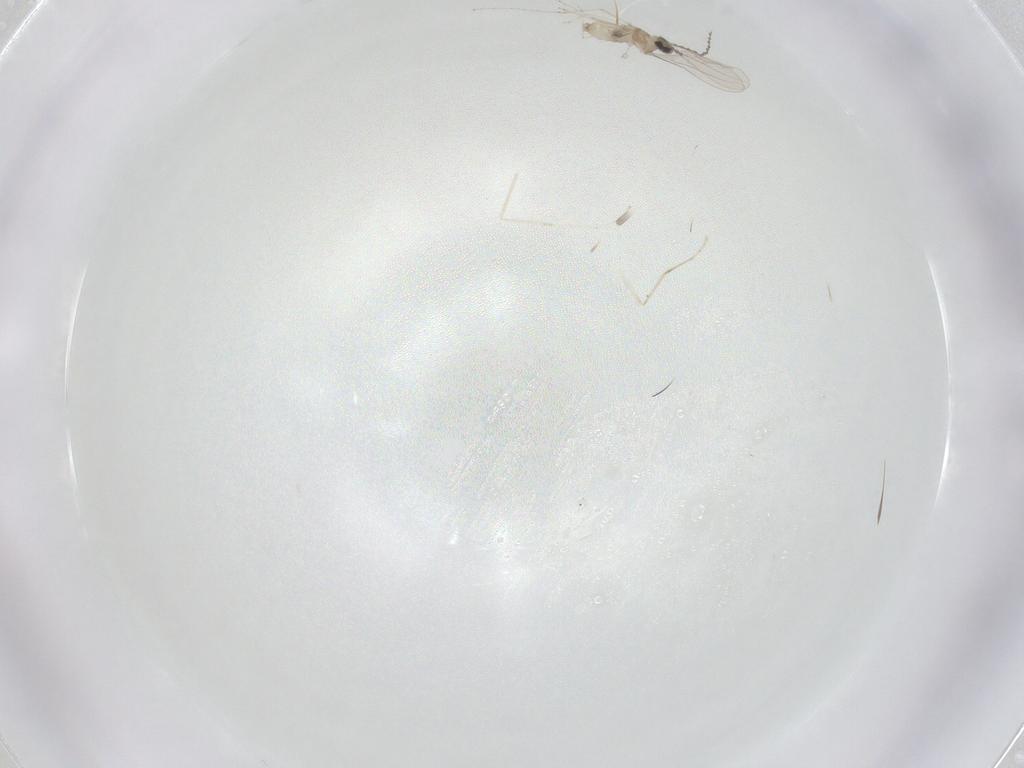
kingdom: Animalia
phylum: Arthropoda
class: Insecta
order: Diptera
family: Cecidomyiidae
